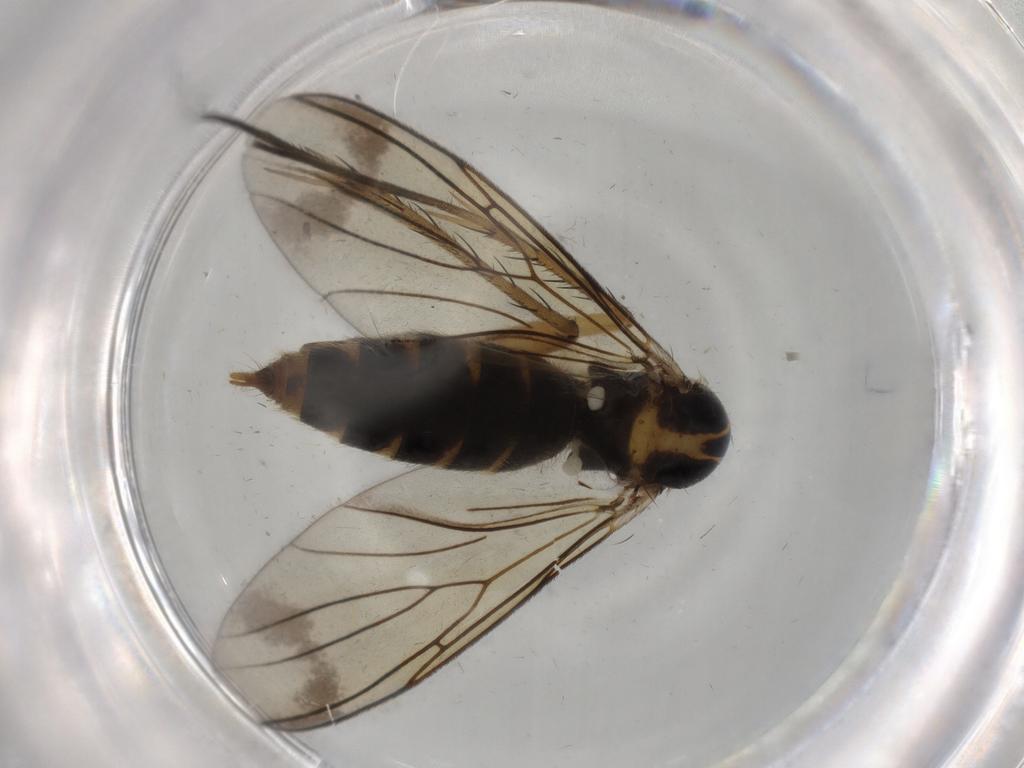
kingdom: Animalia
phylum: Arthropoda
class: Insecta
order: Diptera
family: Mycetophilidae
